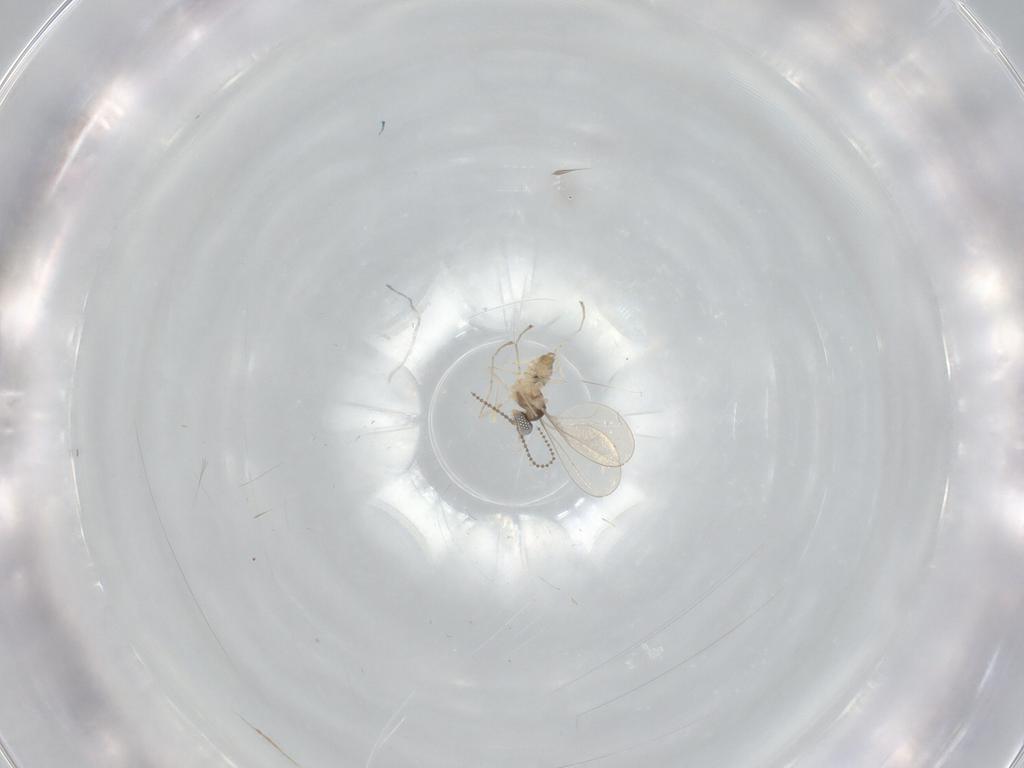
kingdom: Animalia
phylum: Arthropoda
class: Insecta
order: Diptera
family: Cecidomyiidae
